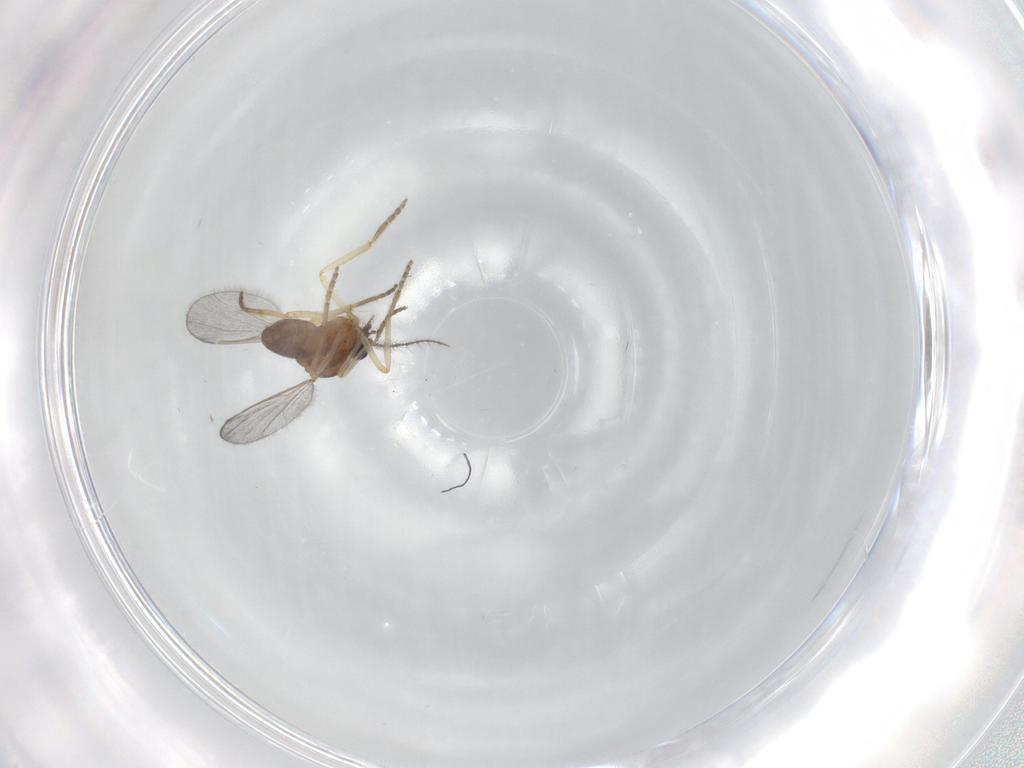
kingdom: Animalia
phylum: Arthropoda
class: Insecta
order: Diptera
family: Ceratopogonidae
